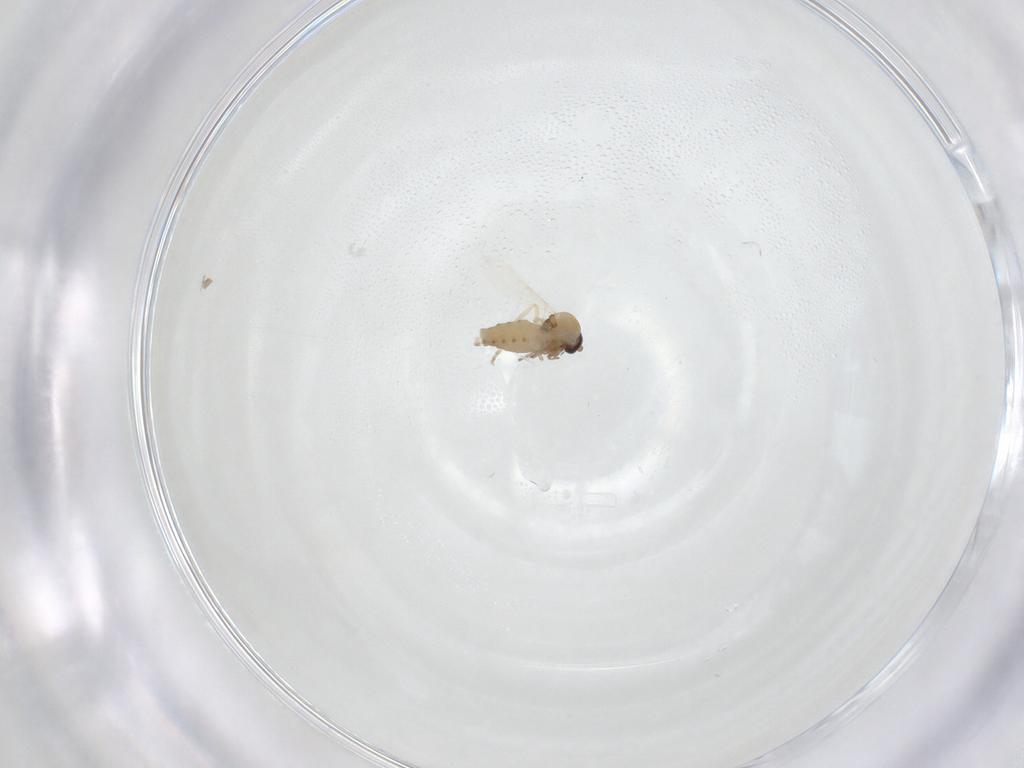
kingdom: Animalia
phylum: Arthropoda
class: Insecta
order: Diptera
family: Ceratopogonidae
